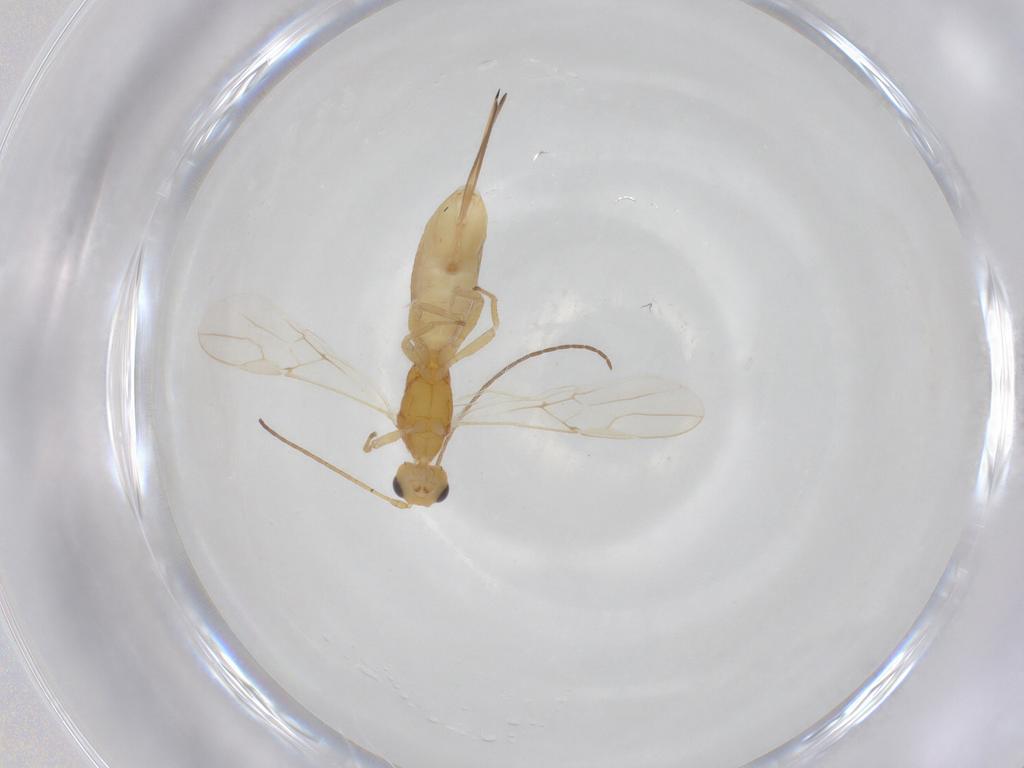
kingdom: Animalia
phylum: Arthropoda
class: Insecta
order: Hymenoptera
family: Braconidae
